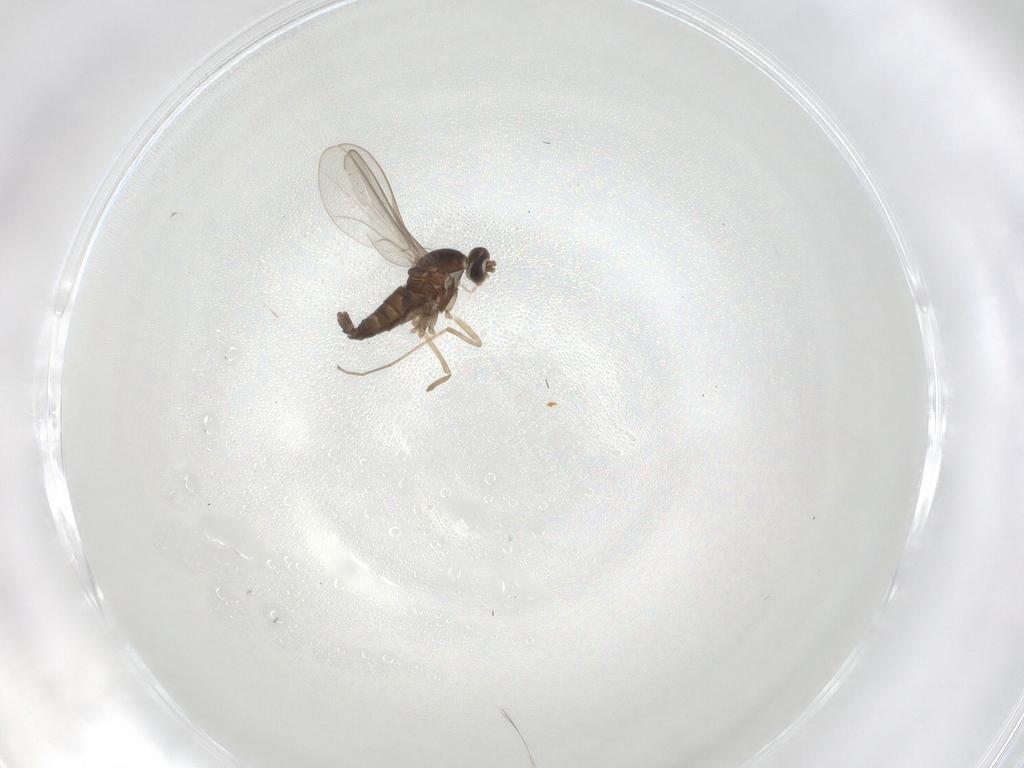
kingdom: Animalia
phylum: Arthropoda
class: Insecta
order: Diptera
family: Cecidomyiidae
